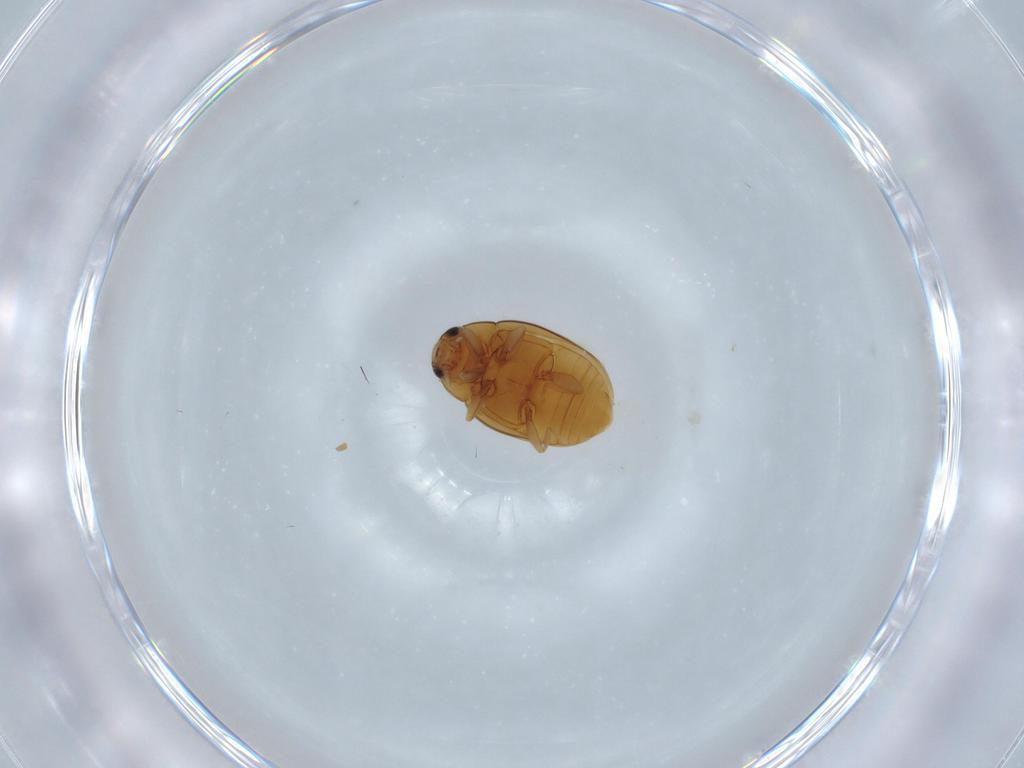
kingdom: Animalia
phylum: Arthropoda
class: Insecta
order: Coleoptera
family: Coccinellidae
